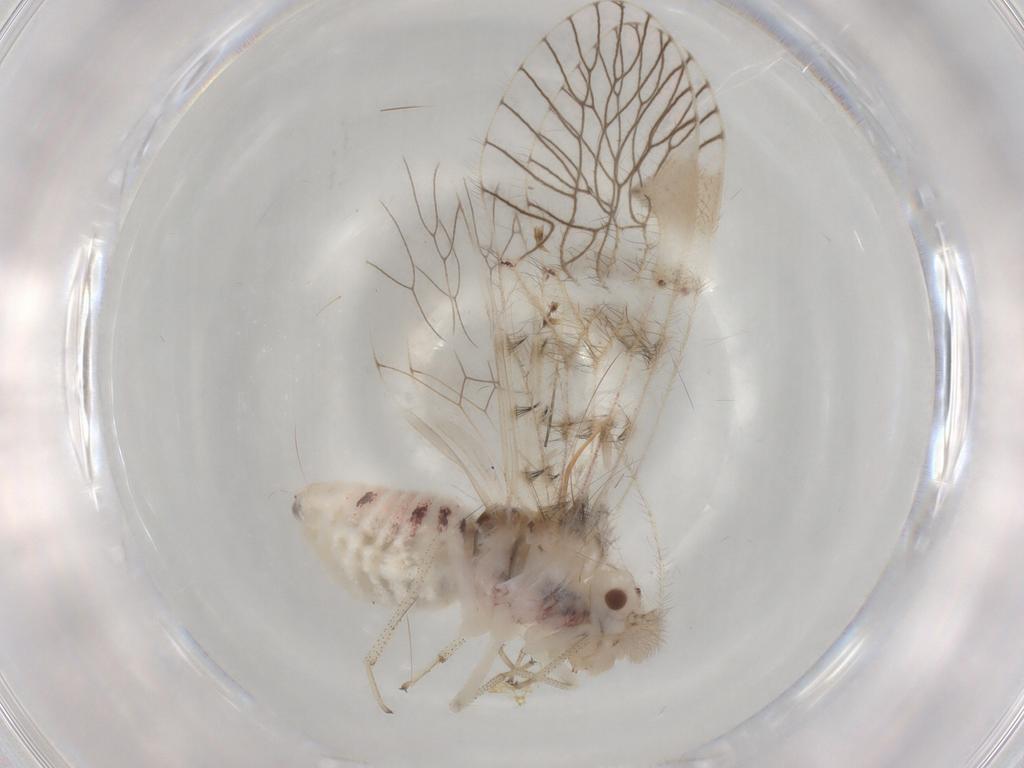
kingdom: Animalia
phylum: Arthropoda
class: Insecta
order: Psocodea
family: Amphipsocidae
